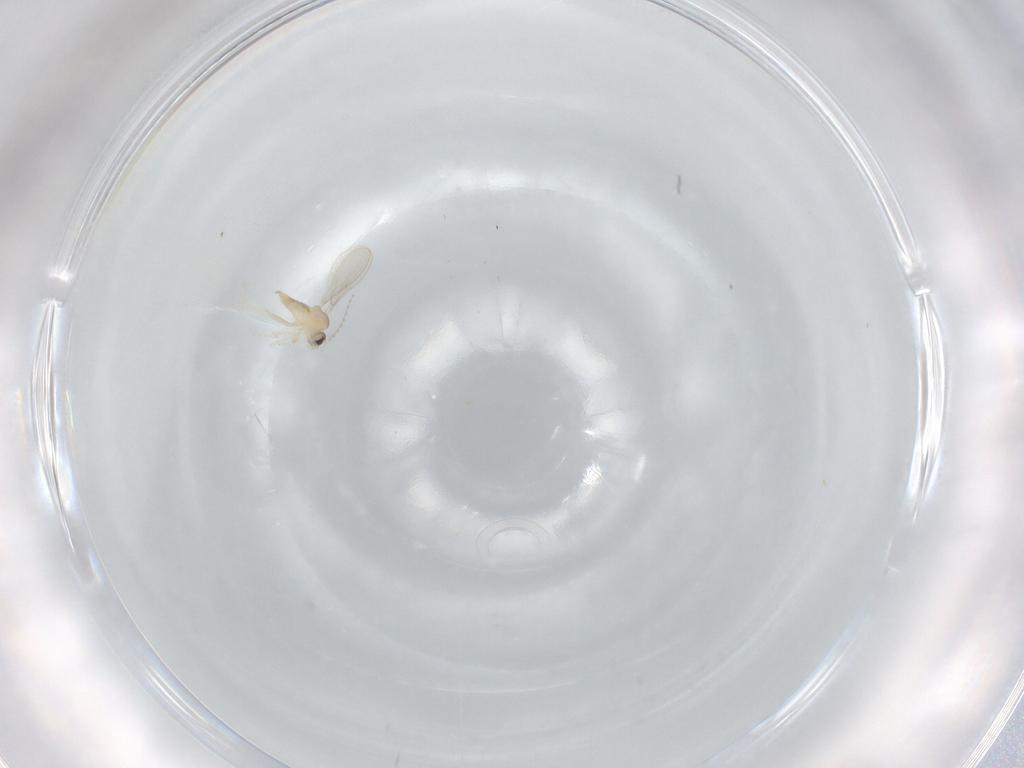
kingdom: Animalia
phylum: Arthropoda
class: Insecta
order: Diptera
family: Cecidomyiidae
